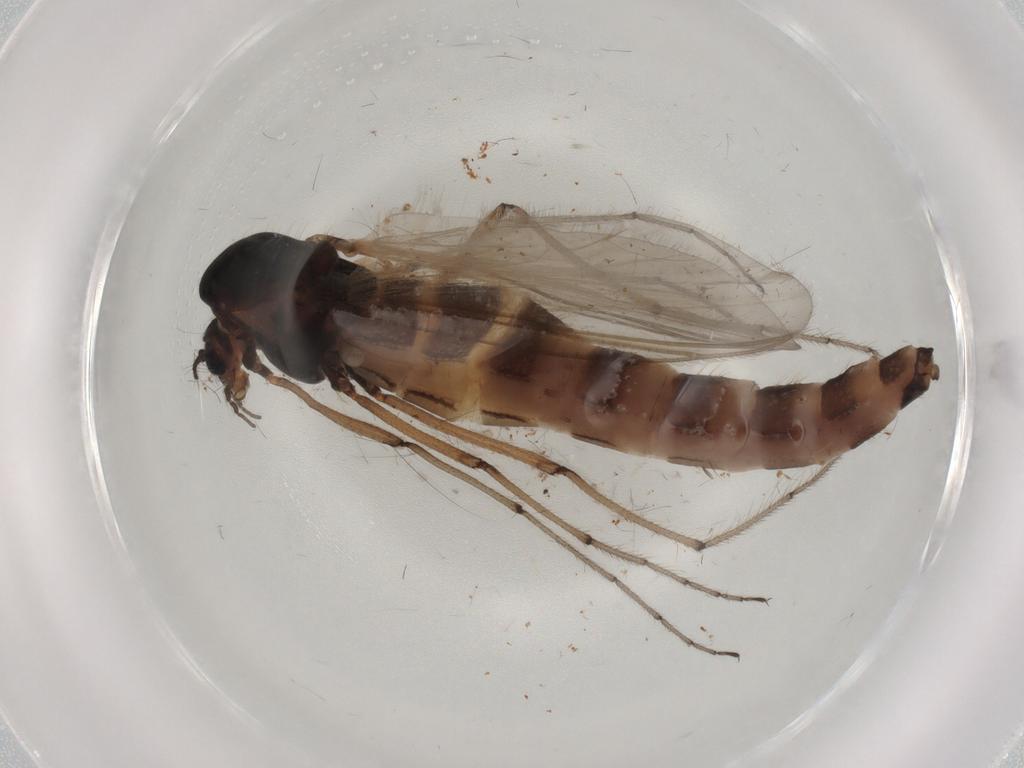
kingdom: Animalia
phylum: Arthropoda
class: Insecta
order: Diptera
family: Chironomidae
